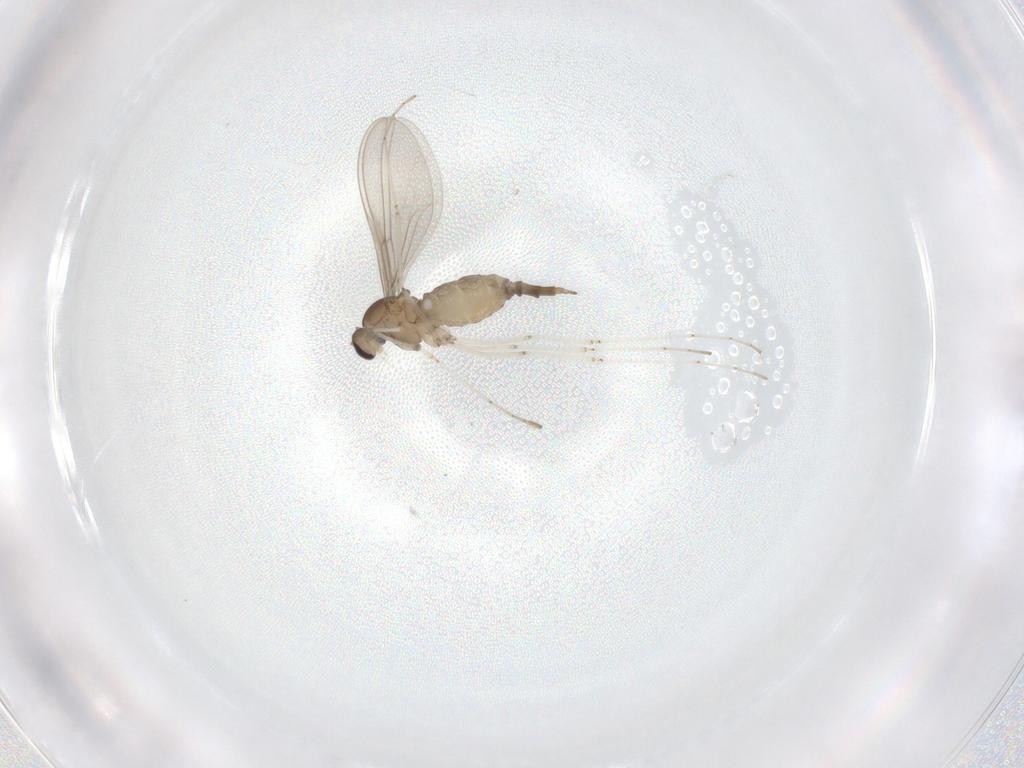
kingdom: Animalia
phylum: Arthropoda
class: Insecta
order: Diptera
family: Cecidomyiidae
